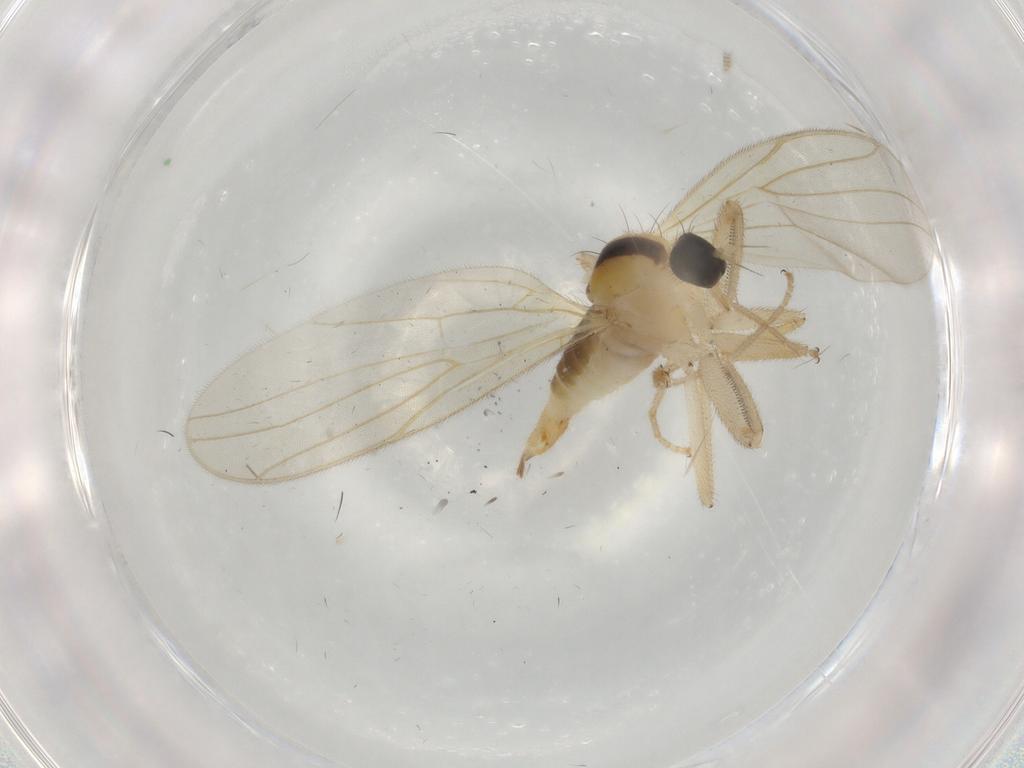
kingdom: Animalia
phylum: Arthropoda
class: Insecta
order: Diptera
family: Hybotidae
